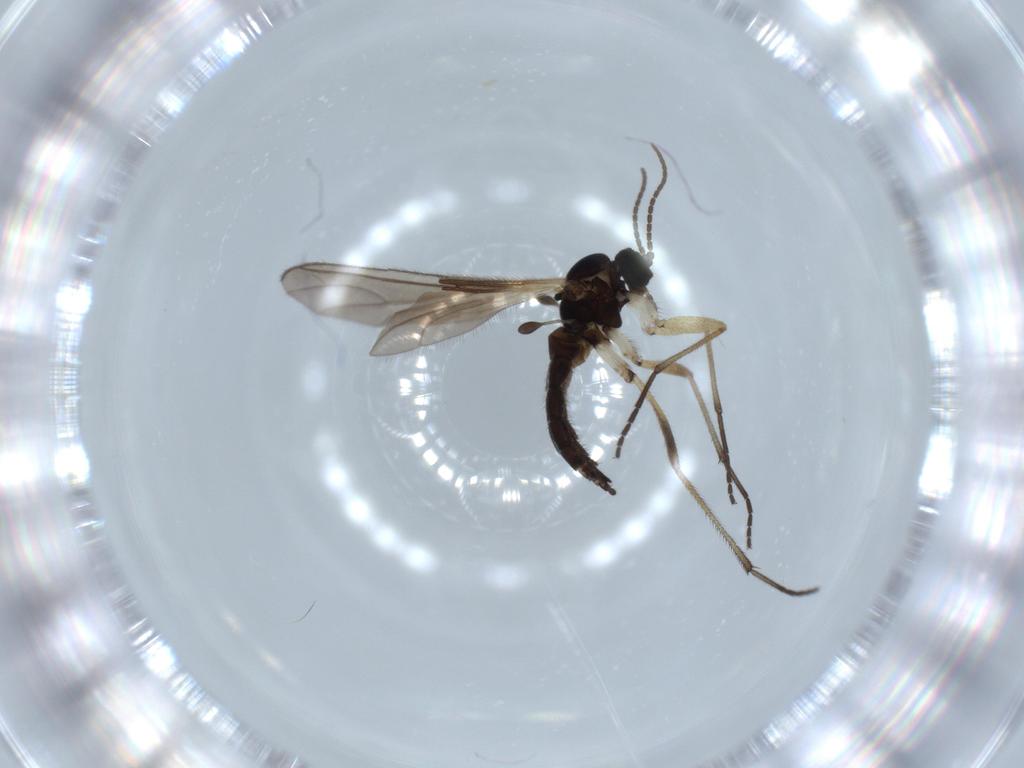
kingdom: Animalia
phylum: Arthropoda
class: Insecta
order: Diptera
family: Sciaridae
